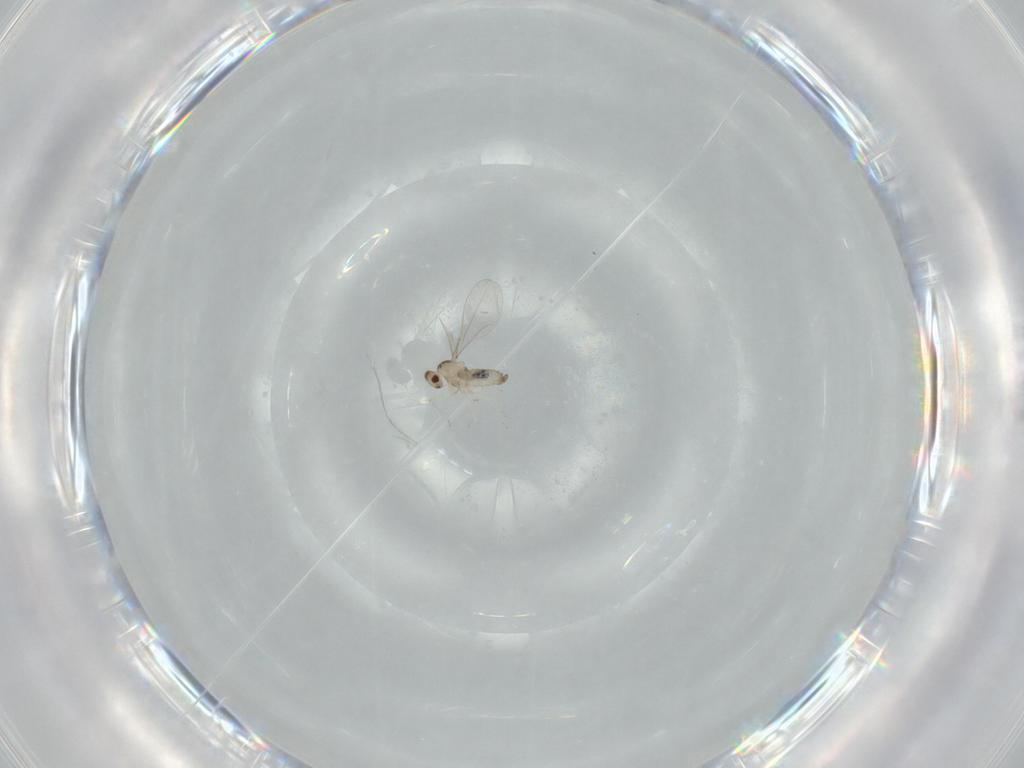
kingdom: Animalia
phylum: Arthropoda
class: Insecta
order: Diptera
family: Cecidomyiidae
